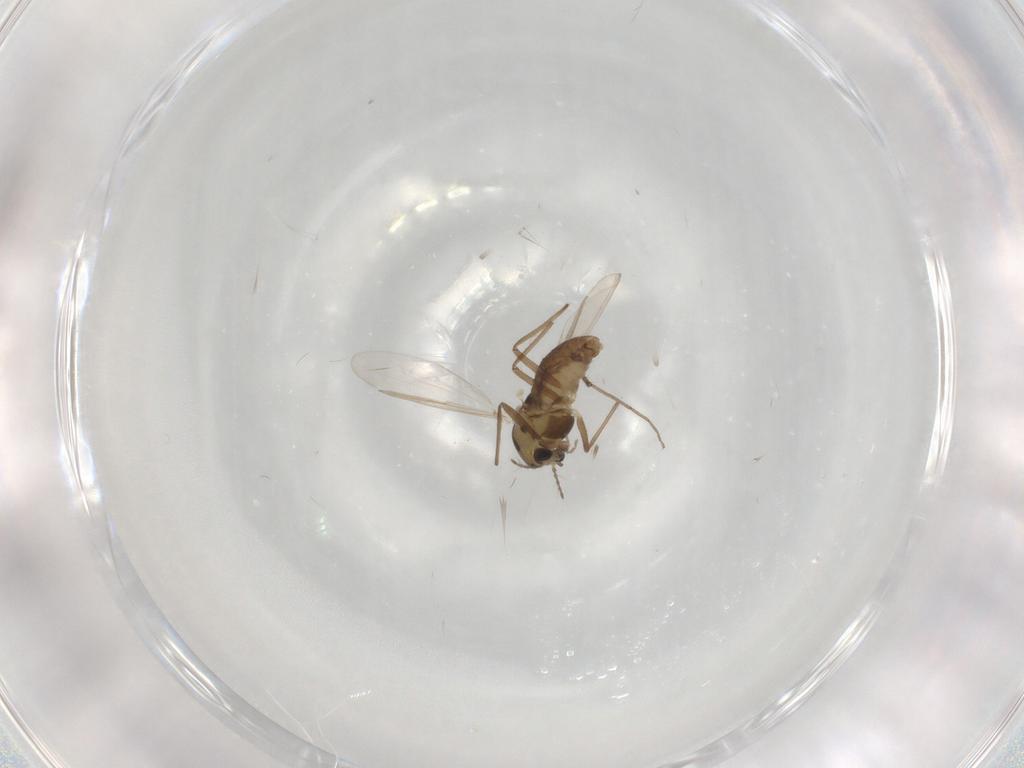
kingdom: Animalia
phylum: Arthropoda
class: Insecta
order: Diptera
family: Chironomidae
